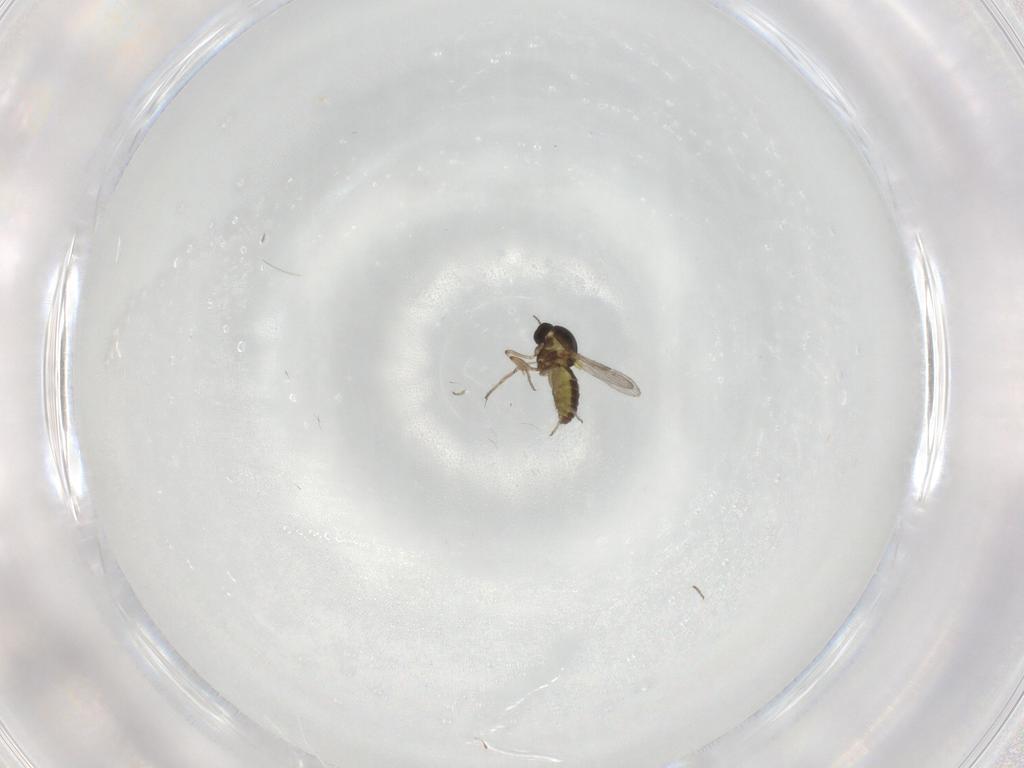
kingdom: Animalia
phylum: Arthropoda
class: Insecta
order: Diptera
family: Ceratopogonidae
